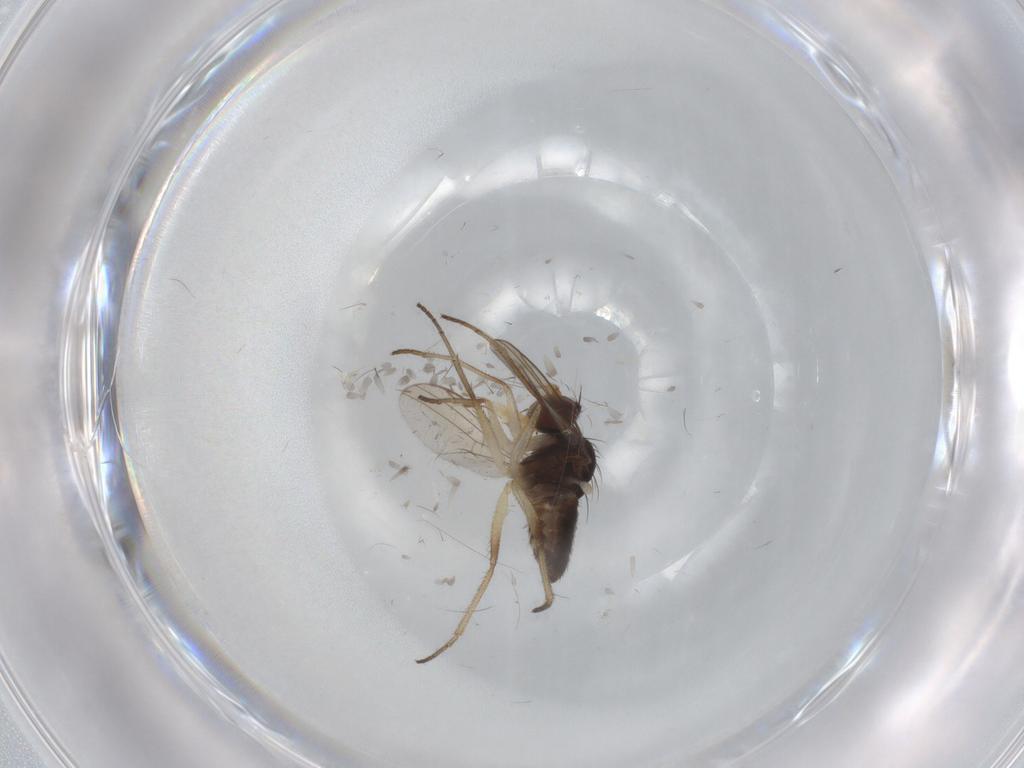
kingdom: Animalia
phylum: Arthropoda
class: Insecta
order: Diptera
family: Dolichopodidae
